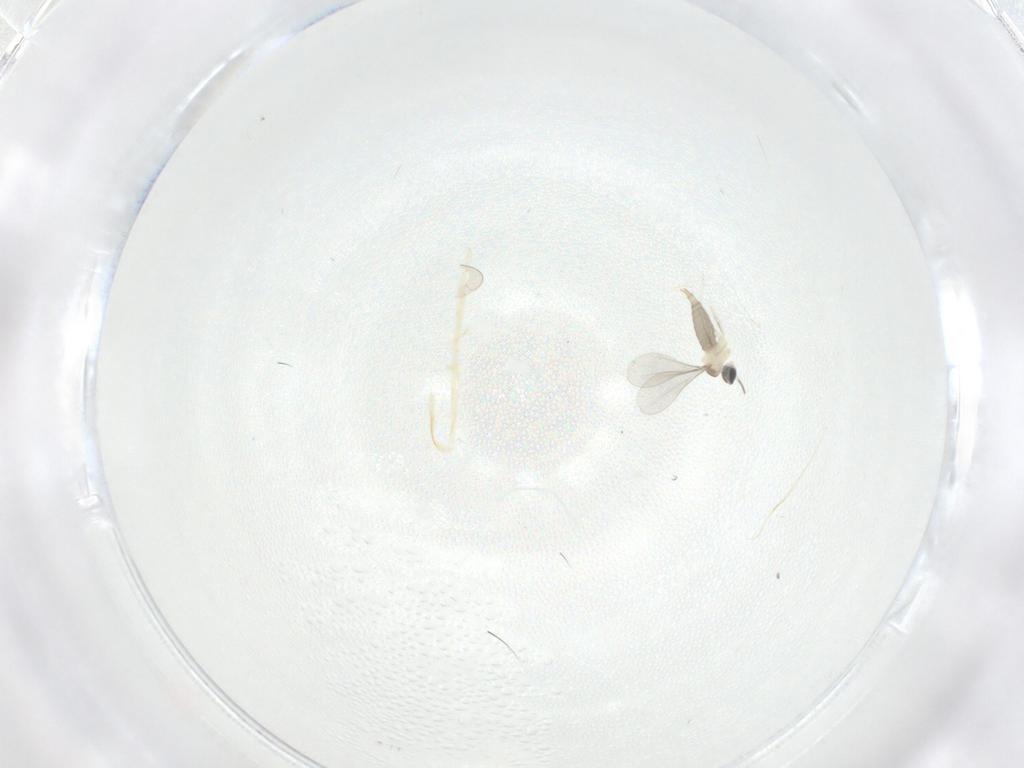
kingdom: Animalia
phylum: Arthropoda
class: Insecta
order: Diptera
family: Cecidomyiidae
